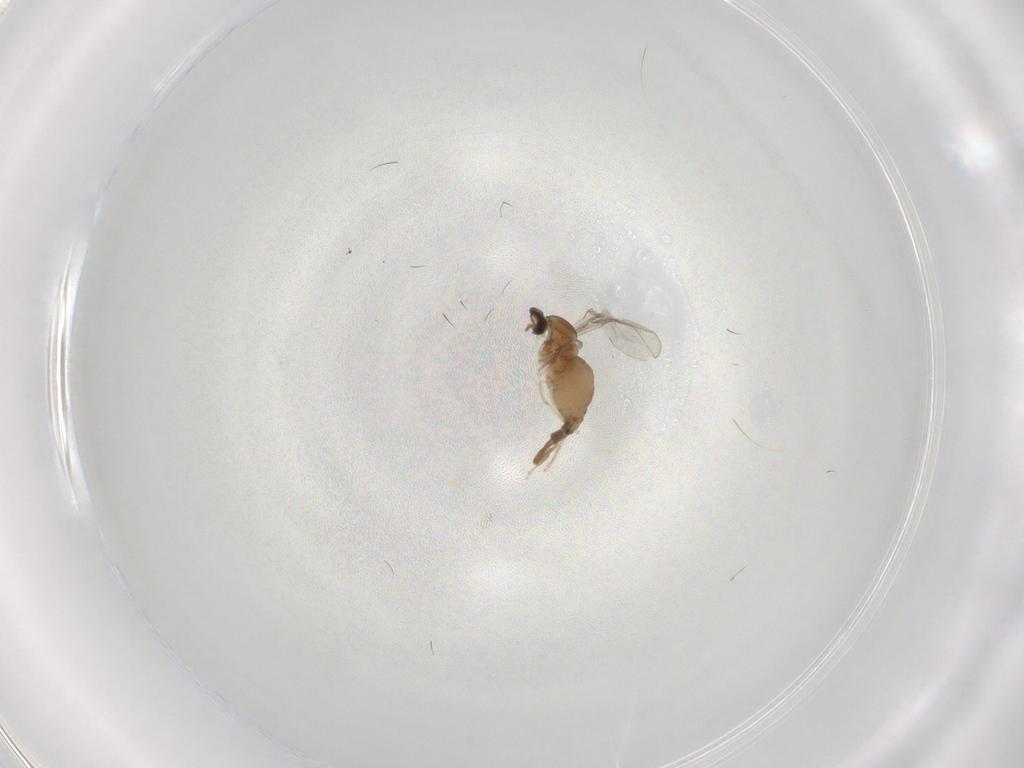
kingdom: Animalia
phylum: Arthropoda
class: Insecta
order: Diptera
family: Cecidomyiidae
